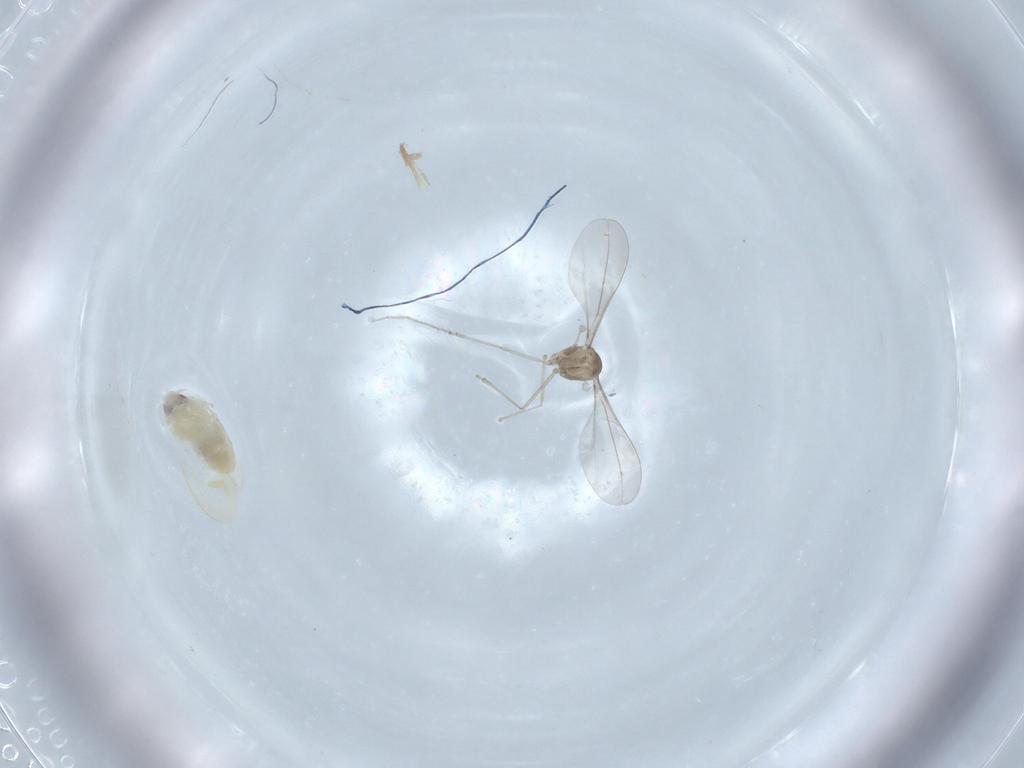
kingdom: Animalia
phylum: Arthropoda
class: Insecta
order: Diptera
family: Cecidomyiidae
